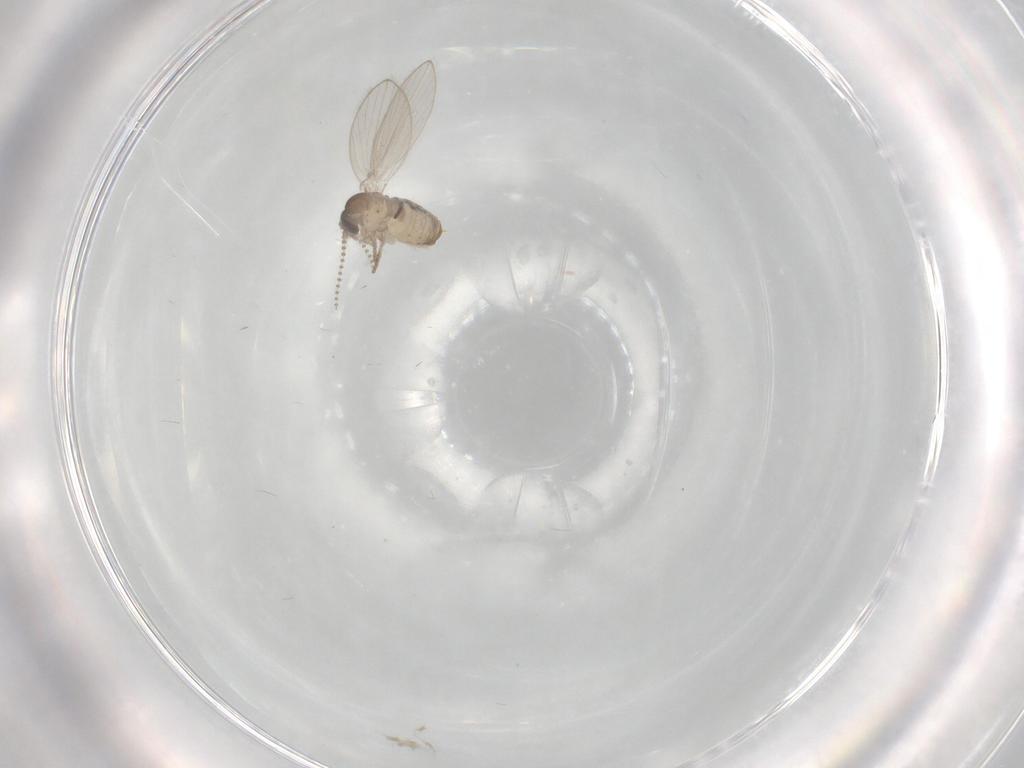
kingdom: Animalia
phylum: Arthropoda
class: Insecta
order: Diptera
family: Psychodidae
